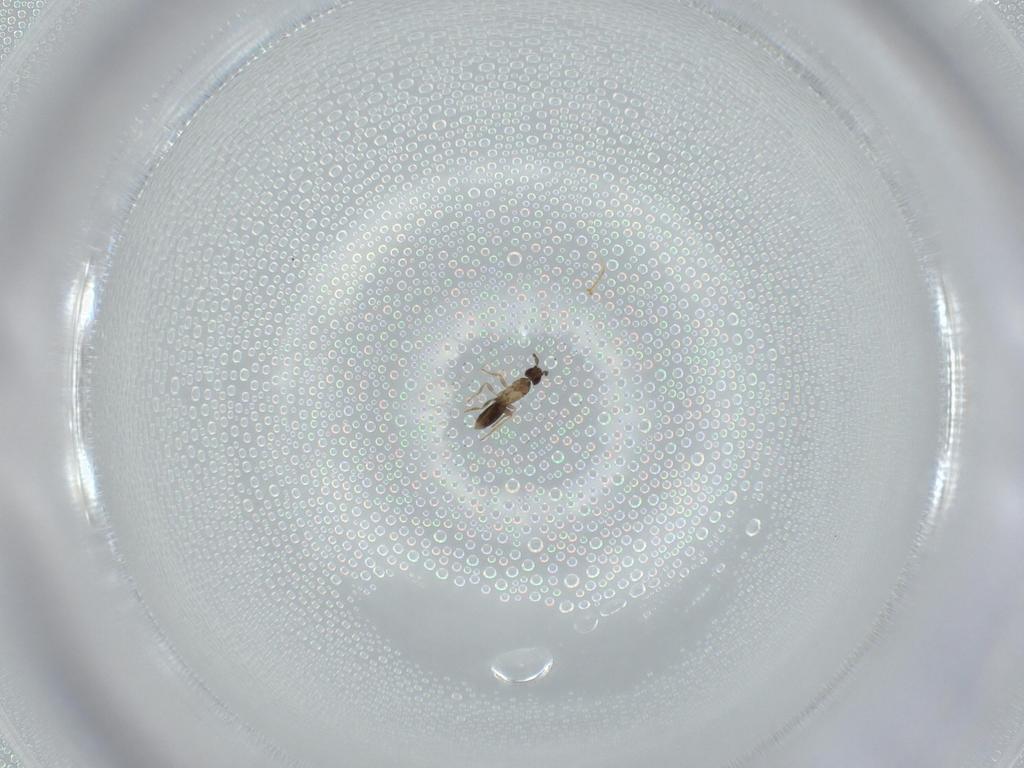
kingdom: Animalia
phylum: Arthropoda
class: Insecta
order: Hymenoptera
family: Mymaridae
